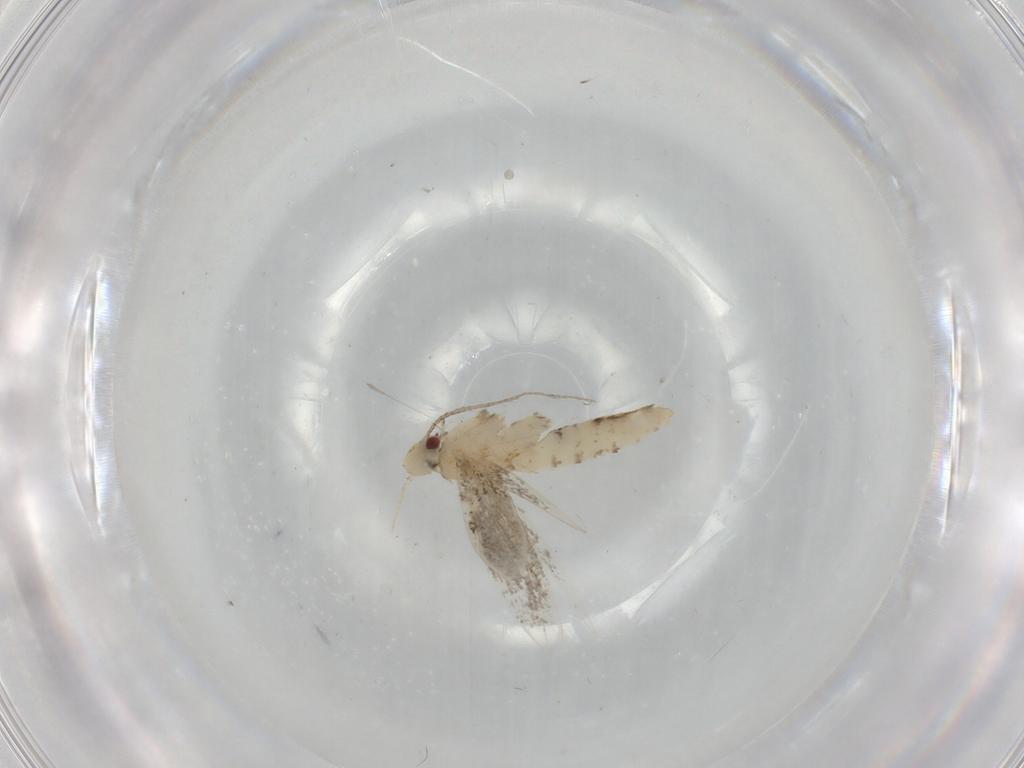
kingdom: Animalia
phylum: Arthropoda
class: Insecta
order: Lepidoptera
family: Gracillariidae
